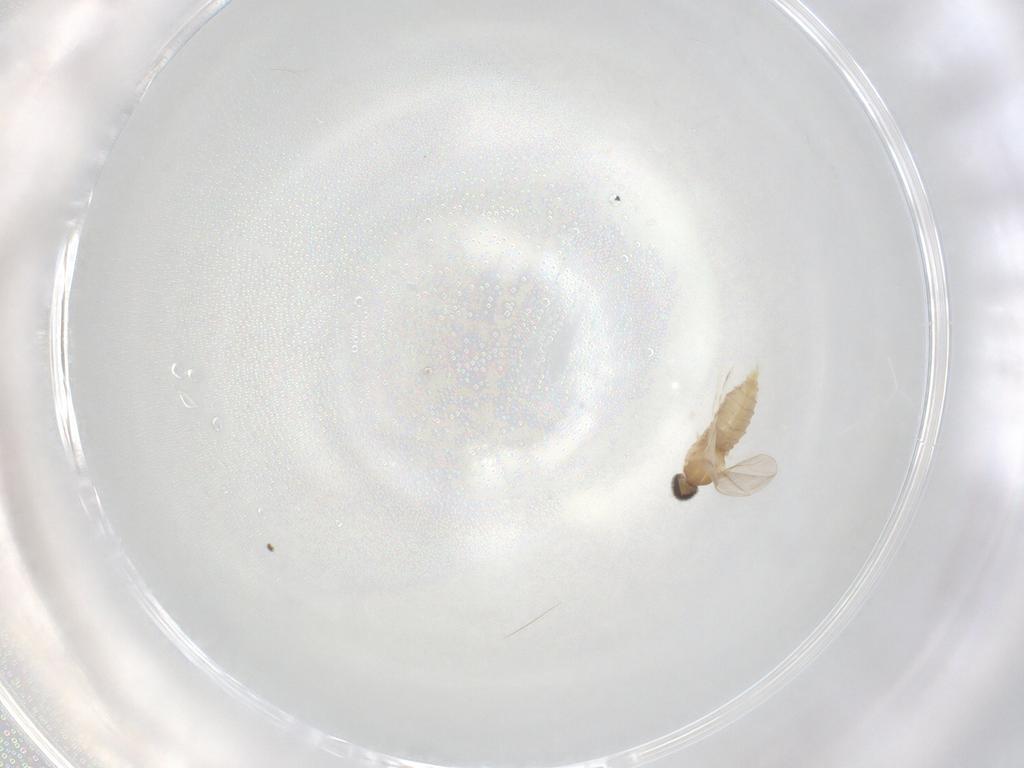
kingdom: Animalia
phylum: Arthropoda
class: Insecta
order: Diptera
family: Cecidomyiidae
